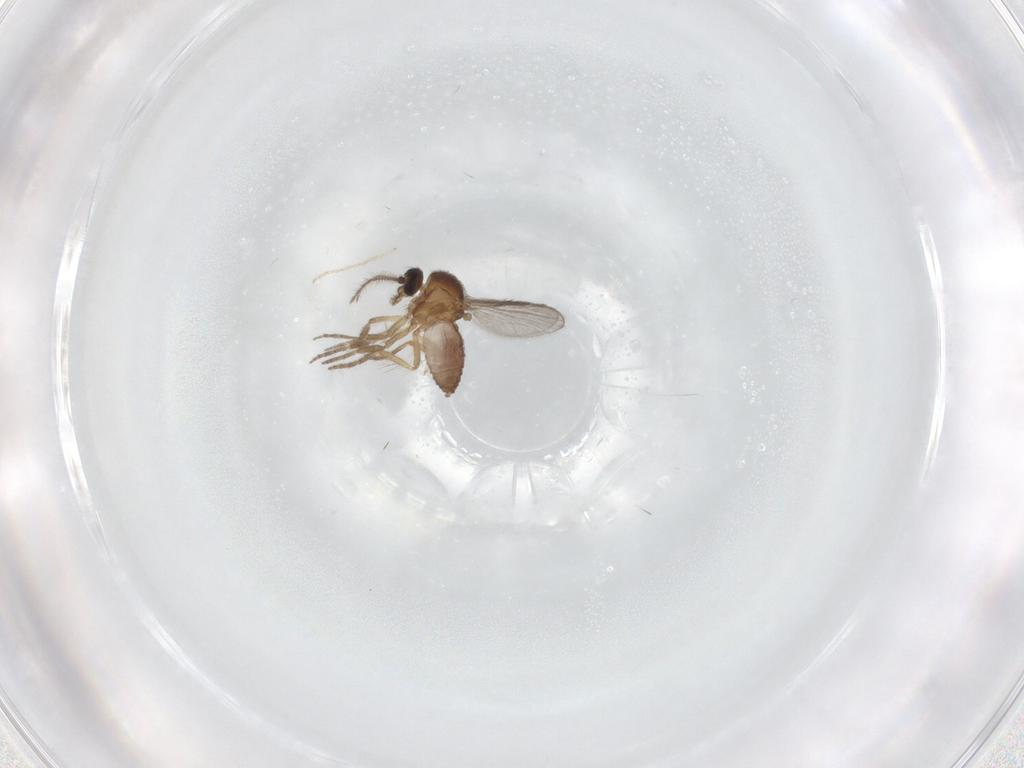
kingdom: Animalia
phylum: Arthropoda
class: Insecta
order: Diptera
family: Chironomidae
